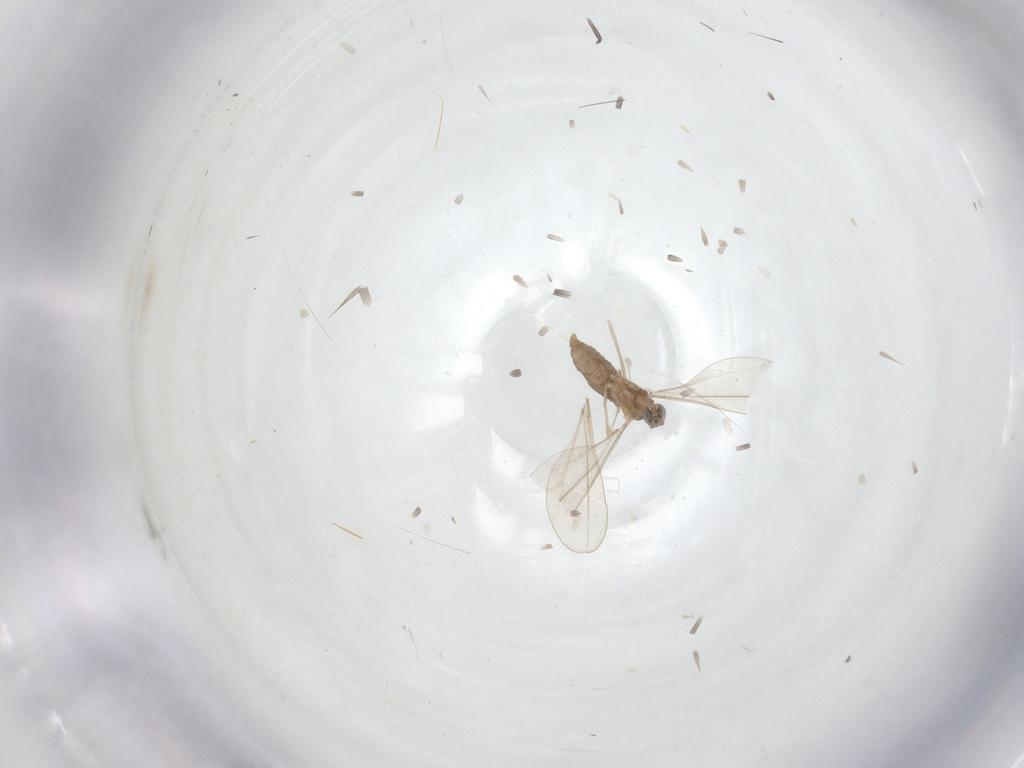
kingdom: Animalia
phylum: Arthropoda
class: Insecta
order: Diptera
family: Cecidomyiidae
